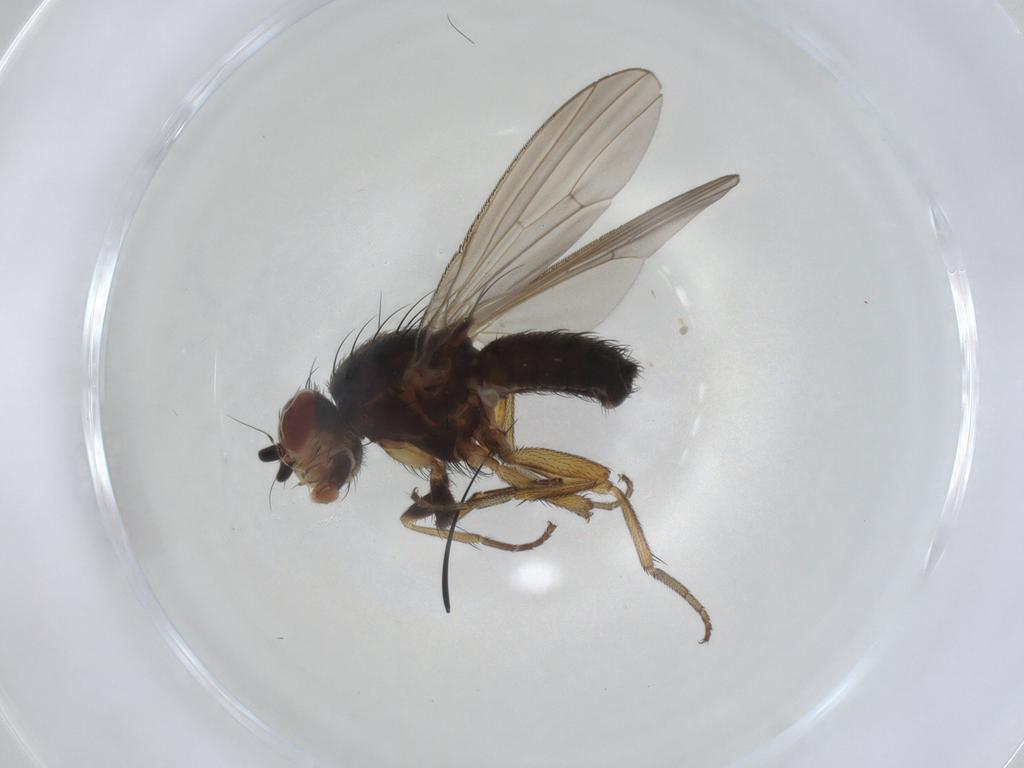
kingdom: Animalia
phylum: Arthropoda
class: Insecta
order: Diptera
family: Heleomyzidae
